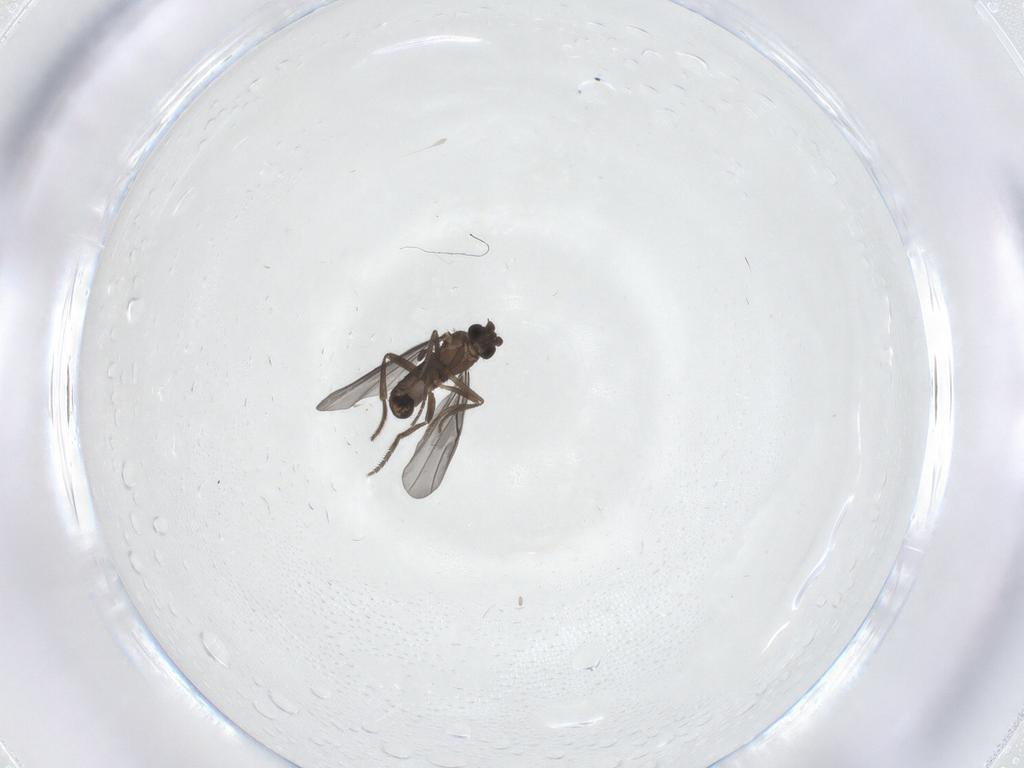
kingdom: Animalia
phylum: Arthropoda
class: Insecta
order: Diptera
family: Phoridae
